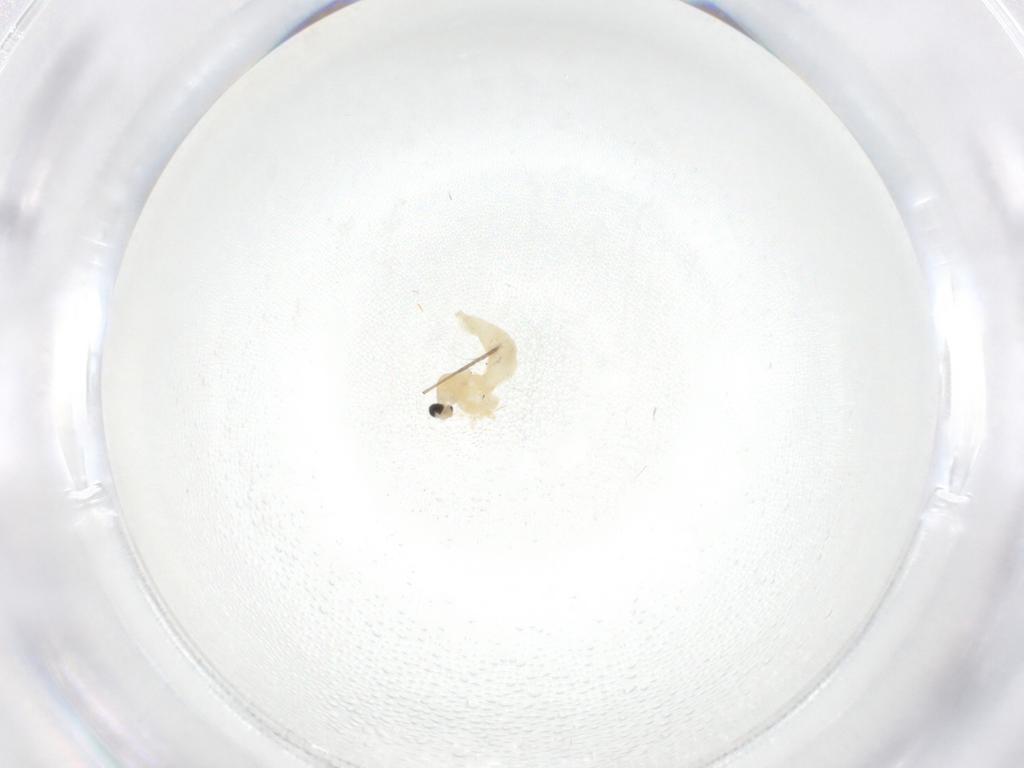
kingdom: Animalia
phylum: Arthropoda
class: Insecta
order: Diptera
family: Cecidomyiidae
